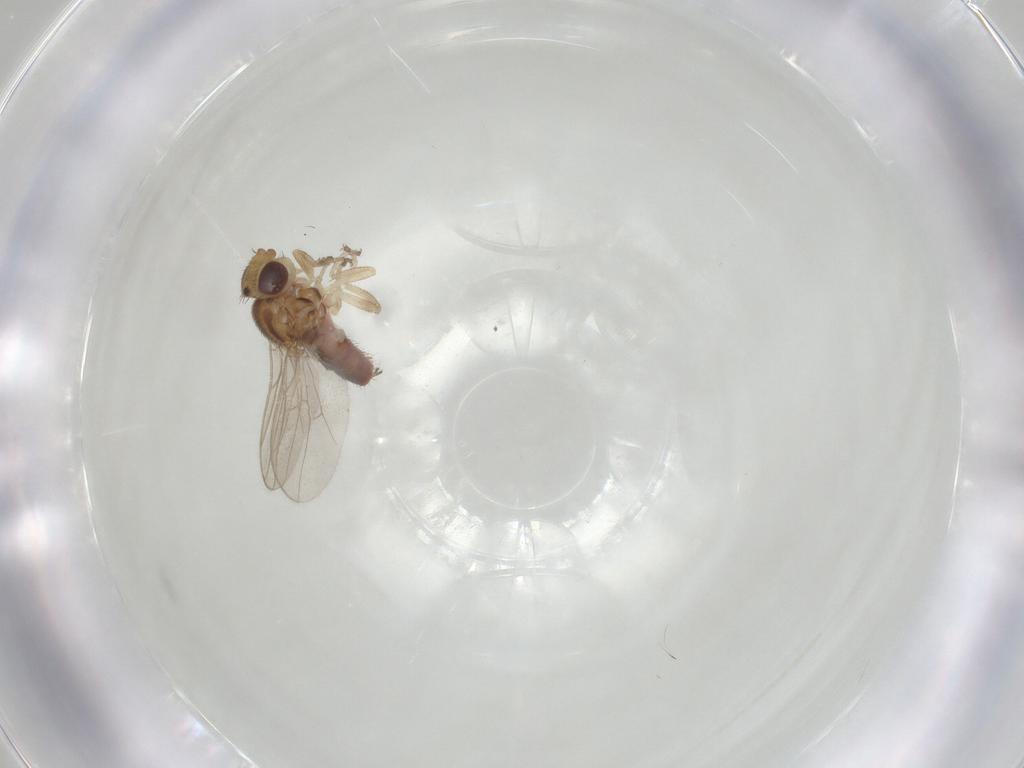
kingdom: Animalia
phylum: Arthropoda
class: Insecta
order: Diptera
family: Chloropidae
